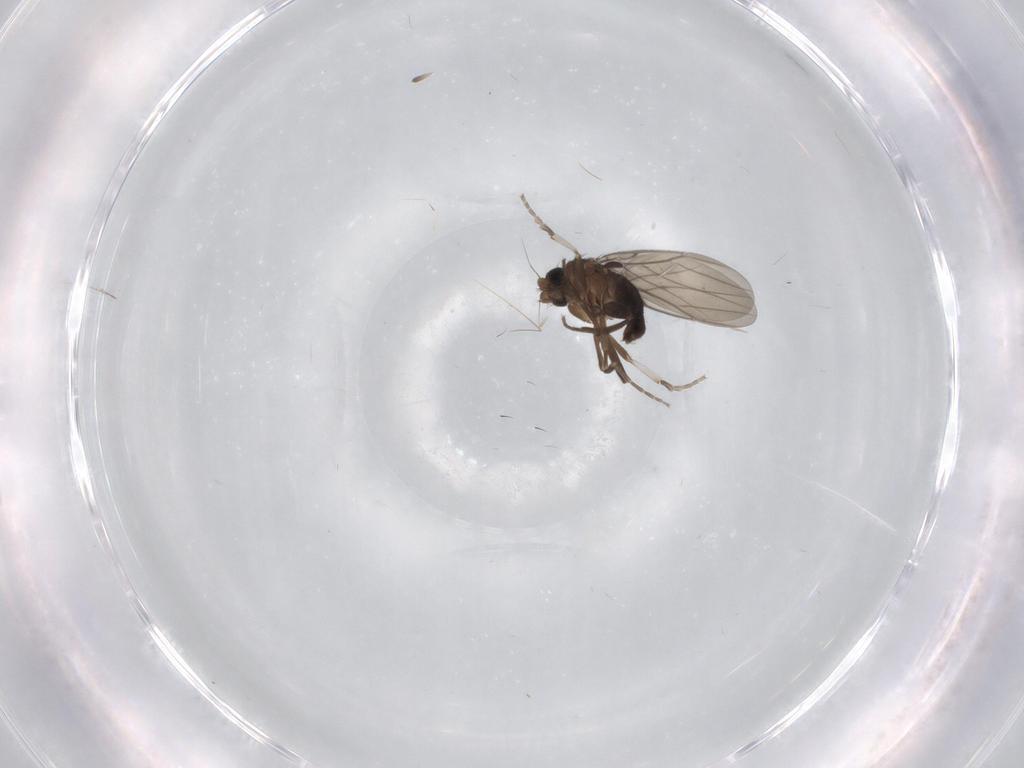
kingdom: Animalia
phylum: Arthropoda
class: Insecta
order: Diptera
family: Phoridae
